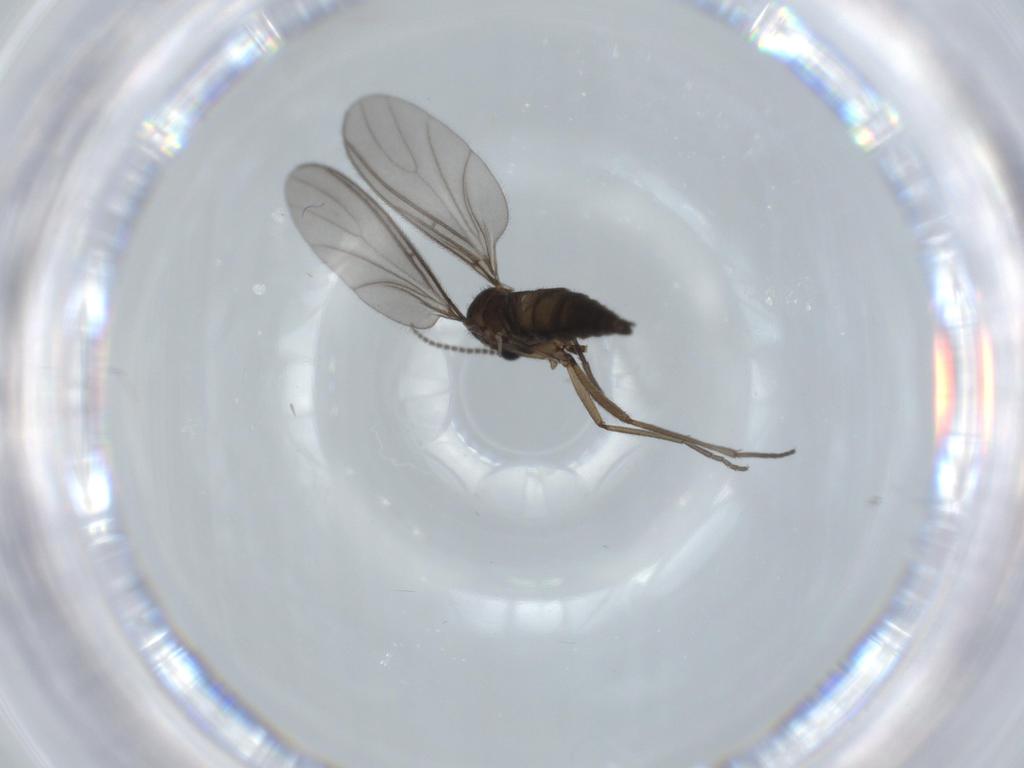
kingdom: Animalia
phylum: Arthropoda
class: Insecta
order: Diptera
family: Sciaridae
